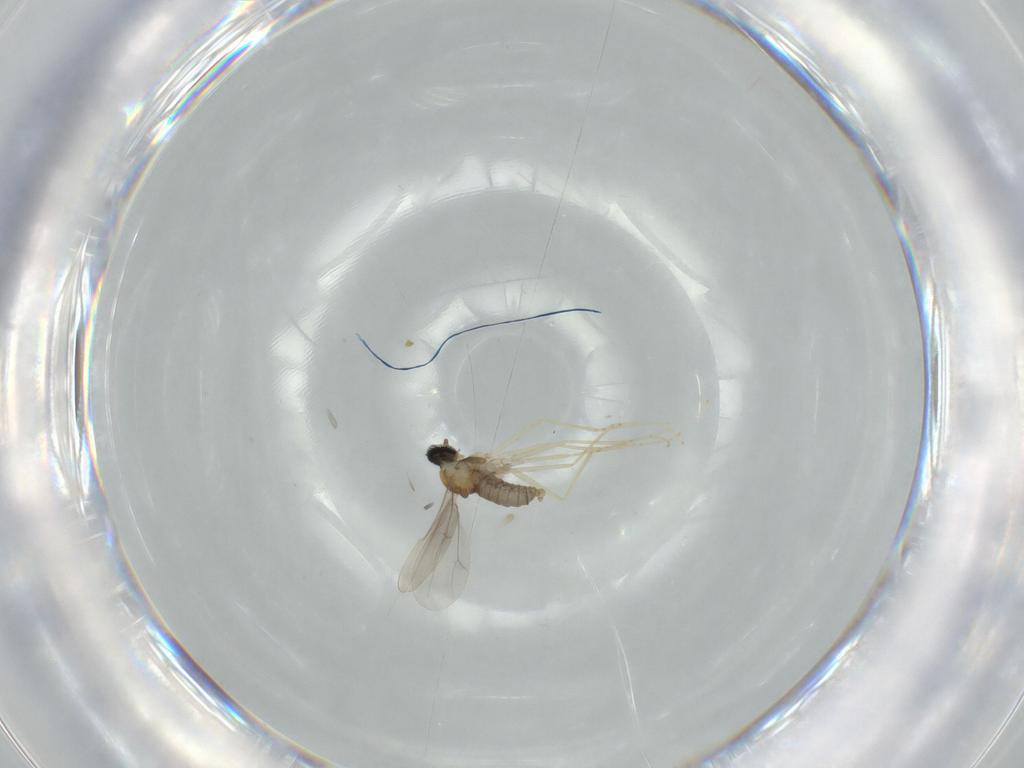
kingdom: Animalia
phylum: Arthropoda
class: Insecta
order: Diptera
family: Cecidomyiidae
